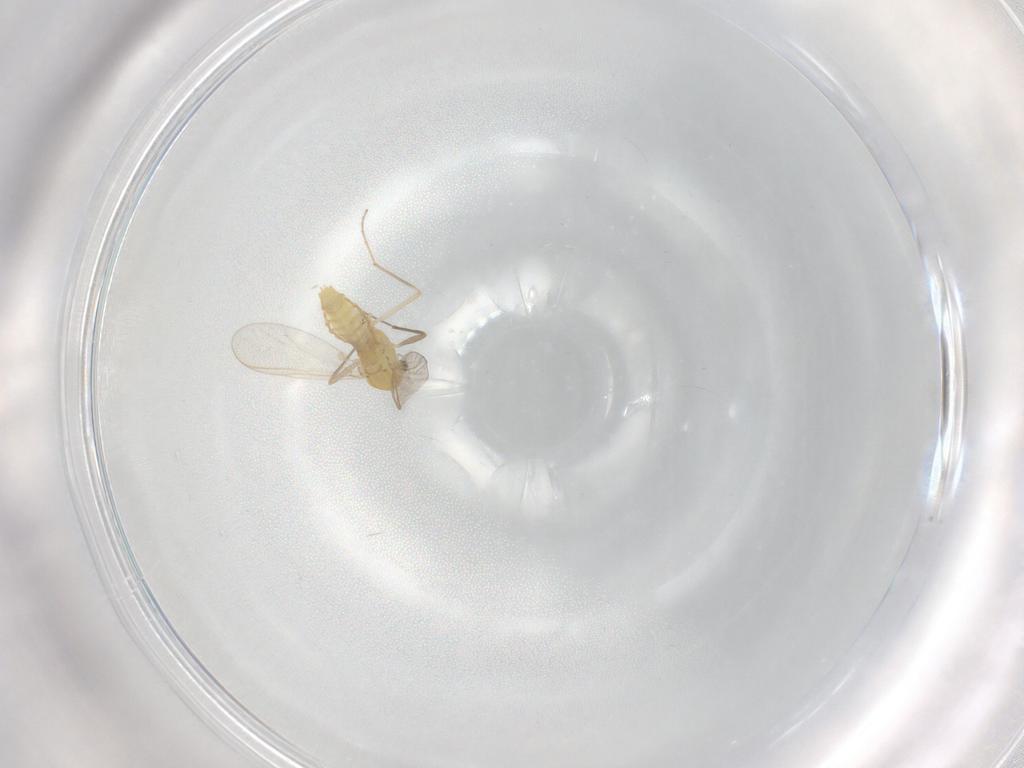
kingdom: Animalia
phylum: Arthropoda
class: Insecta
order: Diptera
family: Chironomidae
